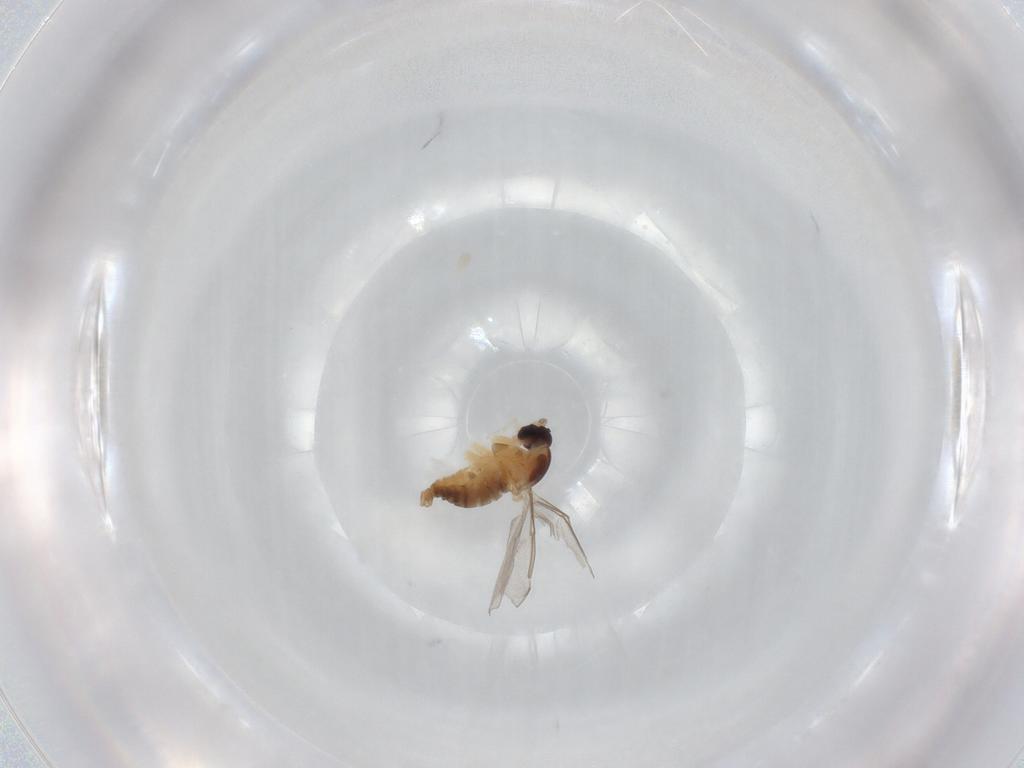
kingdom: Animalia
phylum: Arthropoda
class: Insecta
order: Diptera
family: Cecidomyiidae
